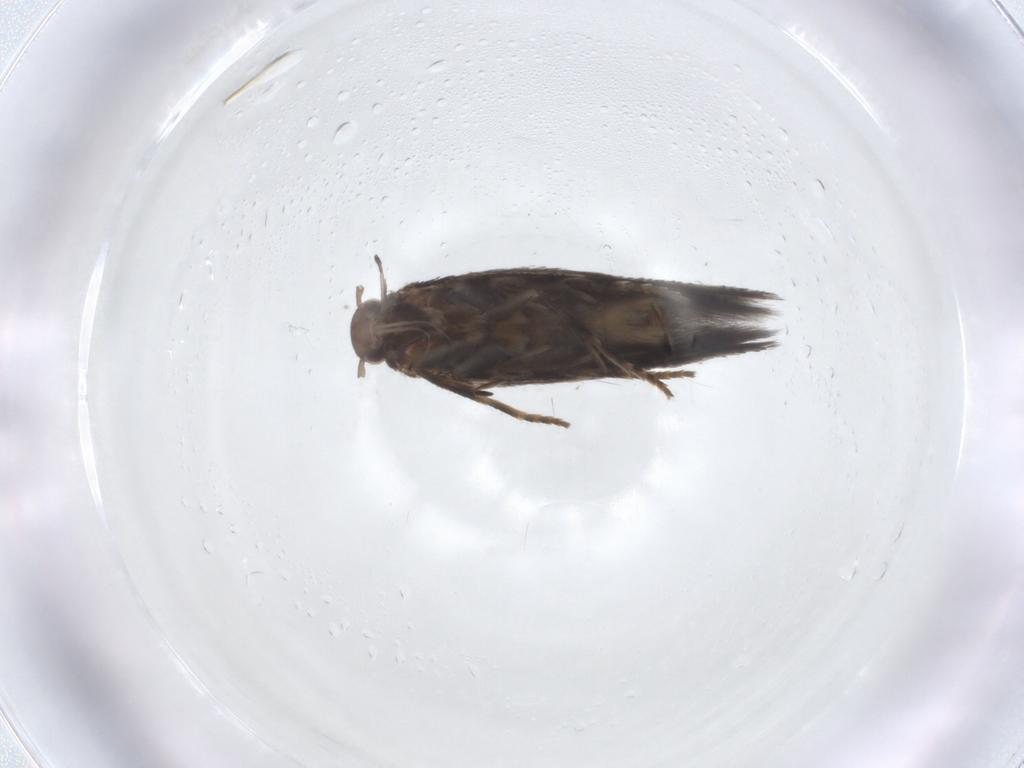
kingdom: Animalia
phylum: Arthropoda
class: Insecta
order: Lepidoptera
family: Elachistidae
